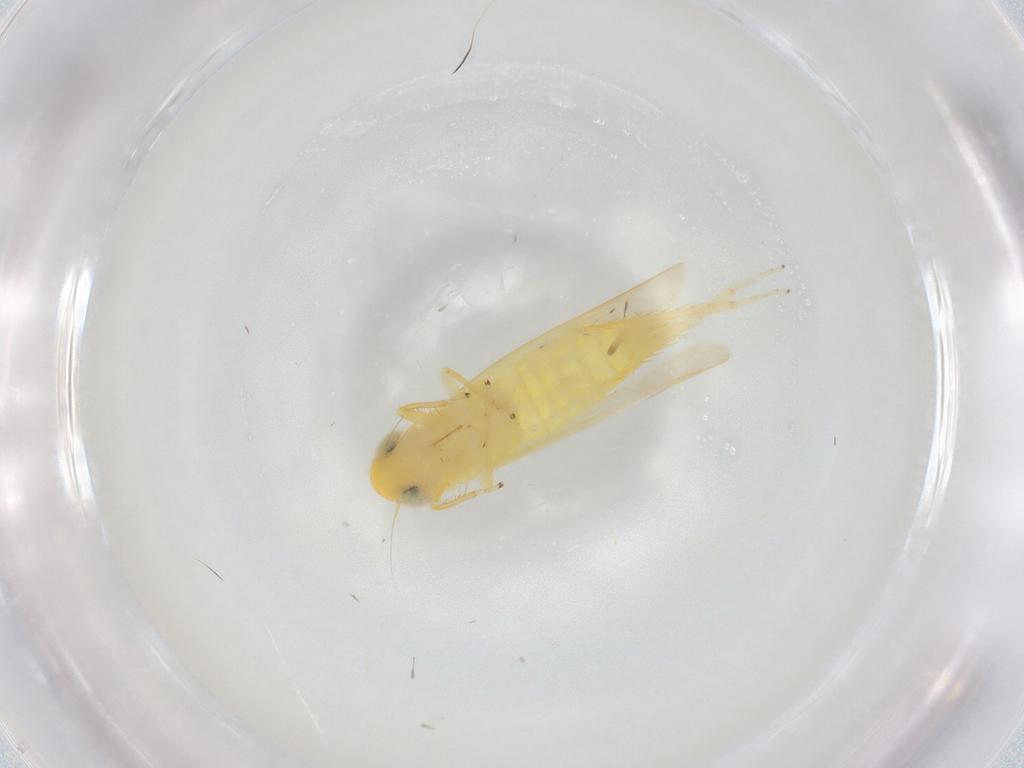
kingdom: Animalia
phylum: Arthropoda
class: Insecta
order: Hemiptera
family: Cicadellidae
